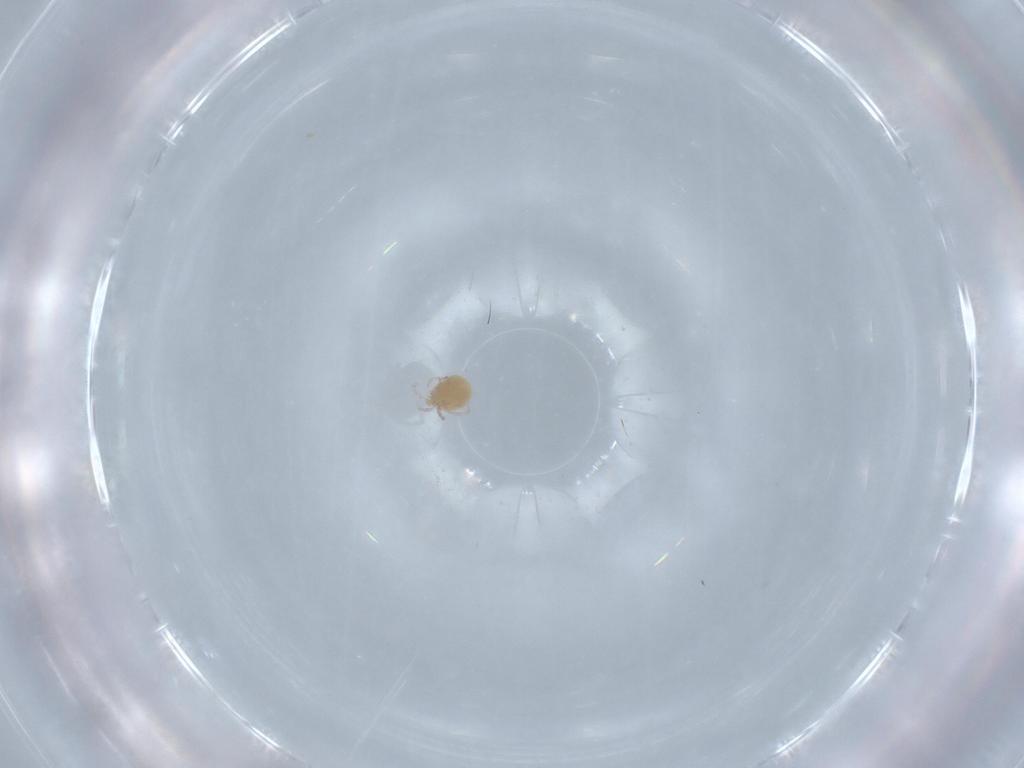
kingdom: Animalia
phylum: Arthropoda
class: Arachnida
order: Trombidiformes
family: Lebertiidae
